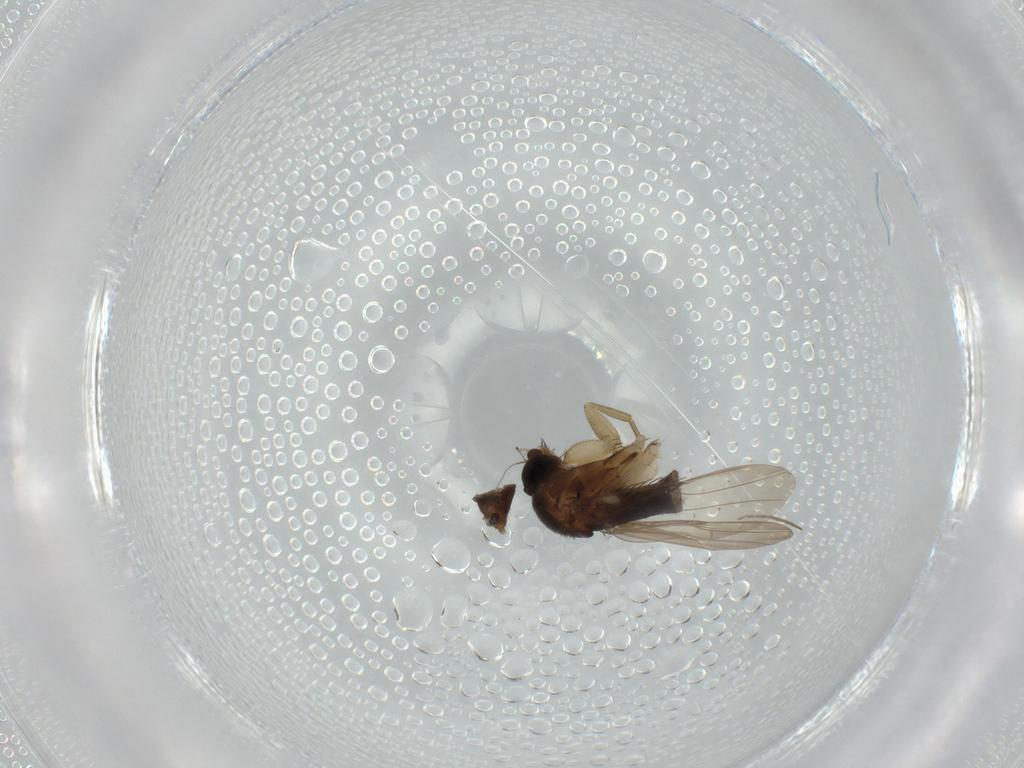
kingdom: Animalia
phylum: Arthropoda
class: Insecta
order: Diptera
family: Phoridae
